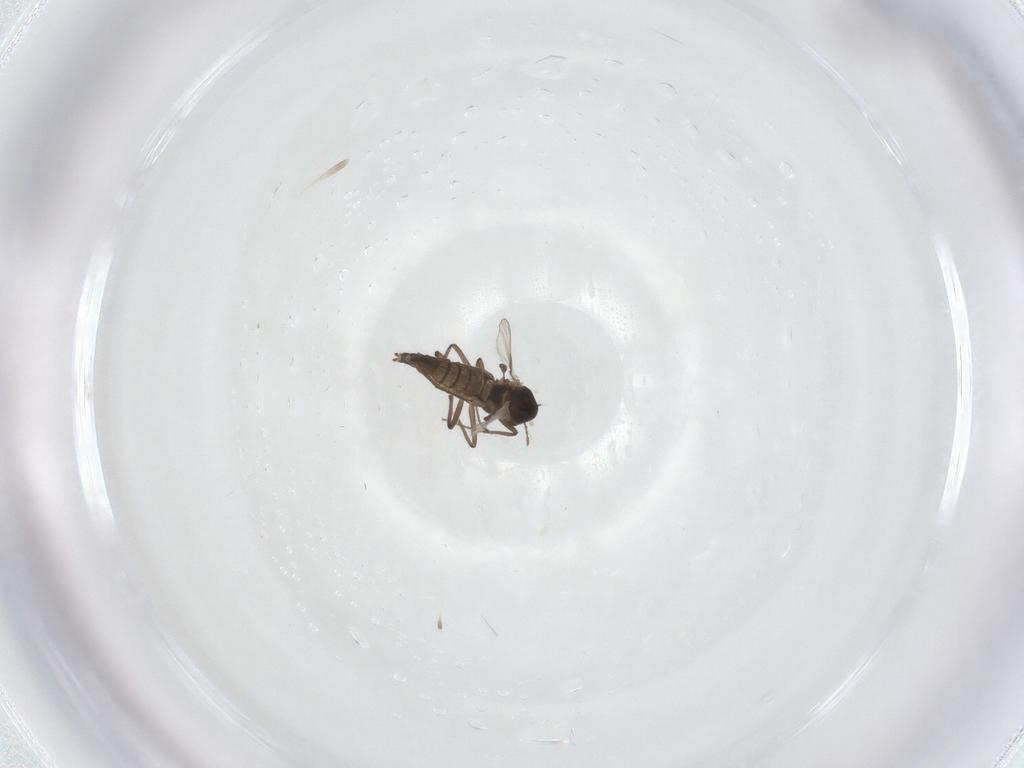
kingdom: Animalia
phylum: Arthropoda
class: Insecta
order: Diptera
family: Chironomidae
